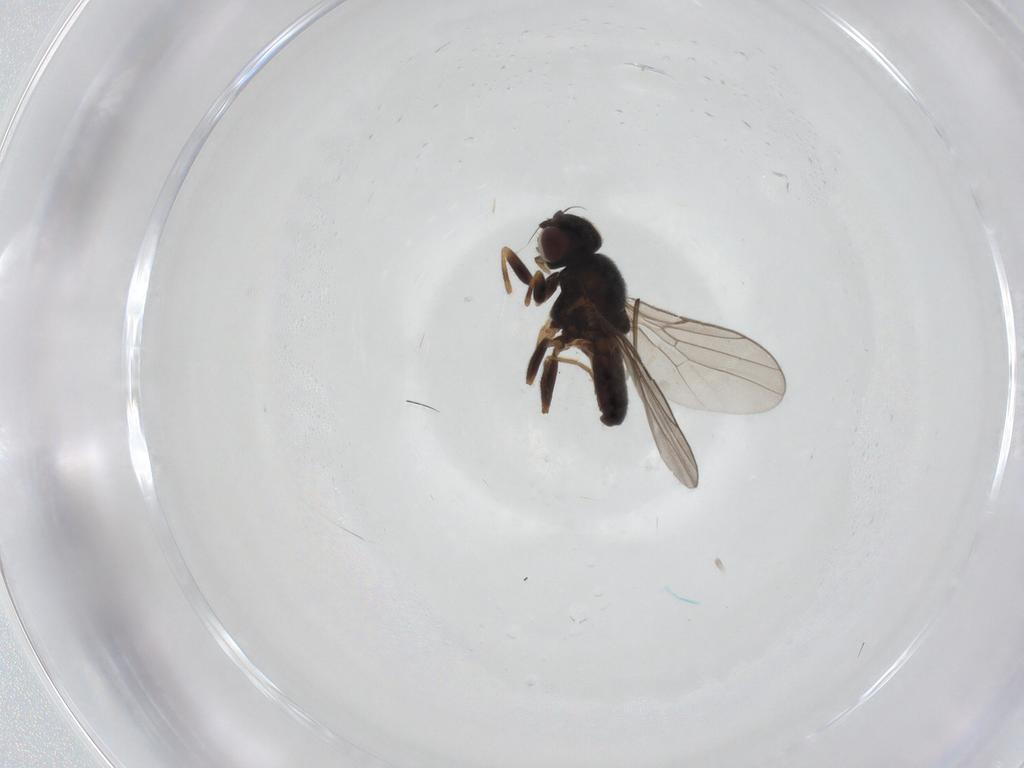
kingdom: Animalia
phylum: Arthropoda
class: Insecta
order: Diptera
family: Chloropidae
